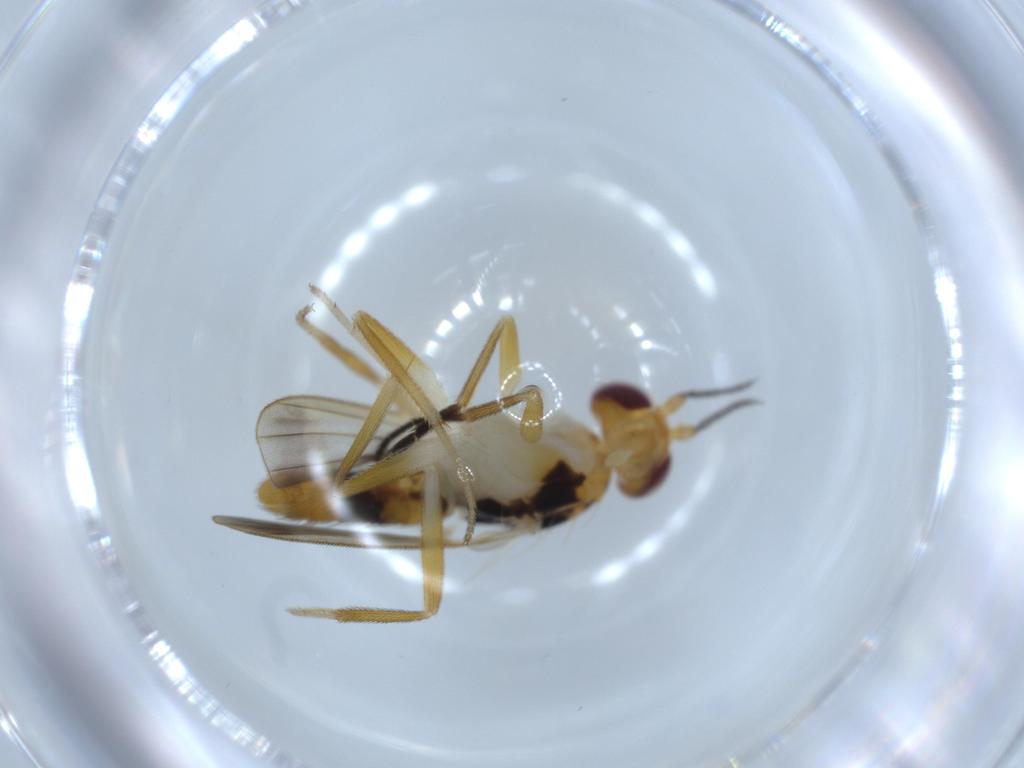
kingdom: Animalia
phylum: Arthropoda
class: Insecta
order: Diptera
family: Clusiidae
